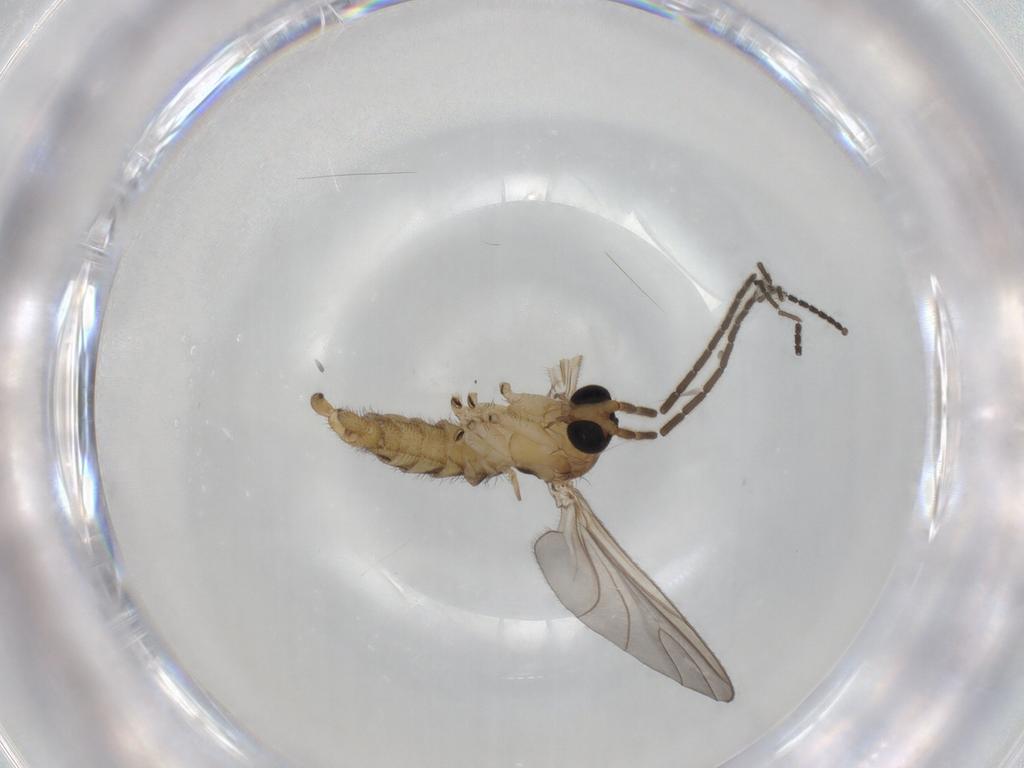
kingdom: Animalia
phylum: Arthropoda
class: Insecta
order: Diptera
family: Sciaridae
